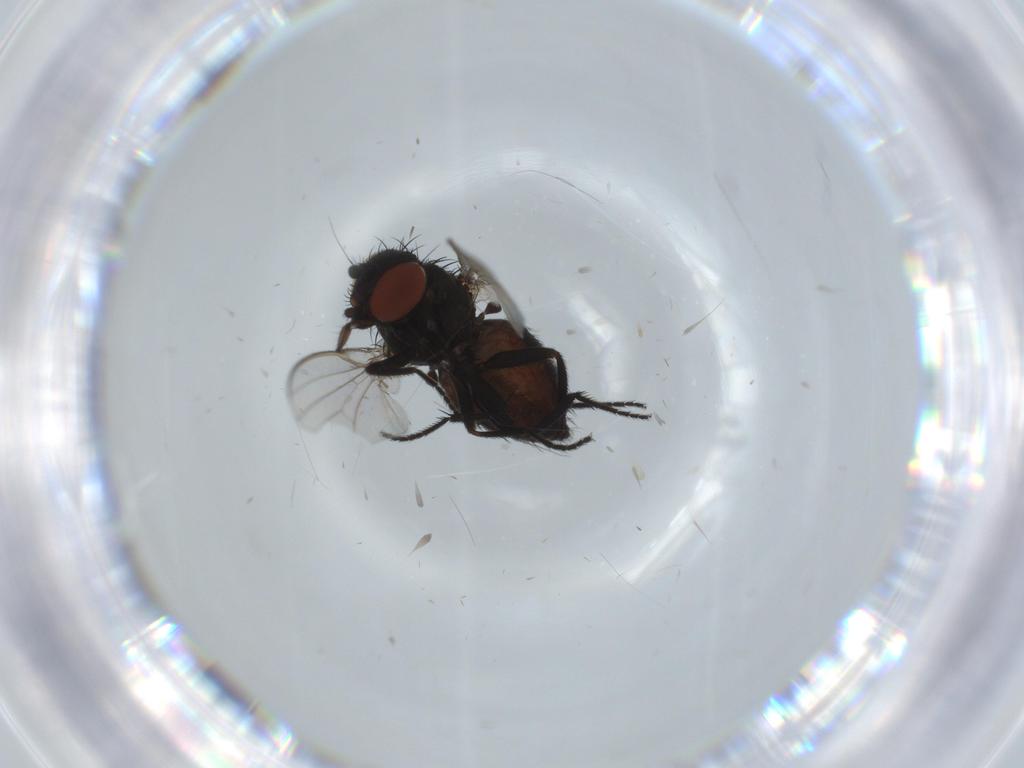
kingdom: Animalia
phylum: Arthropoda
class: Insecta
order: Diptera
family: Milichiidae
